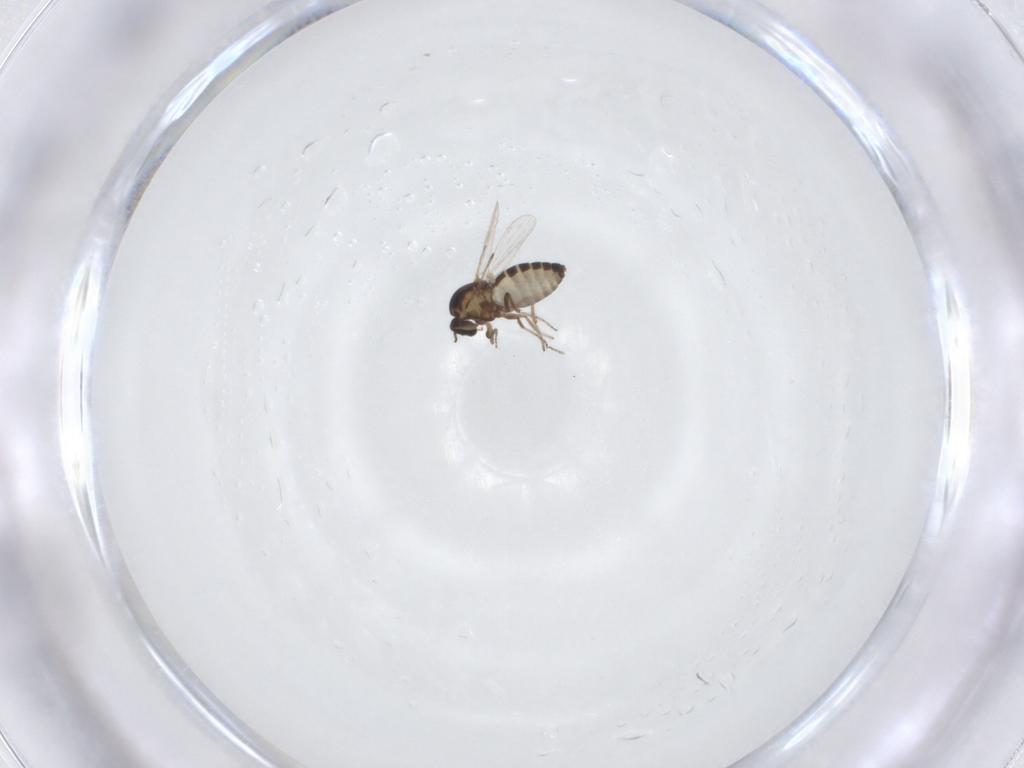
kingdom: Animalia
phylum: Arthropoda
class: Insecta
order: Diptera
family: Ceratopogonidae
